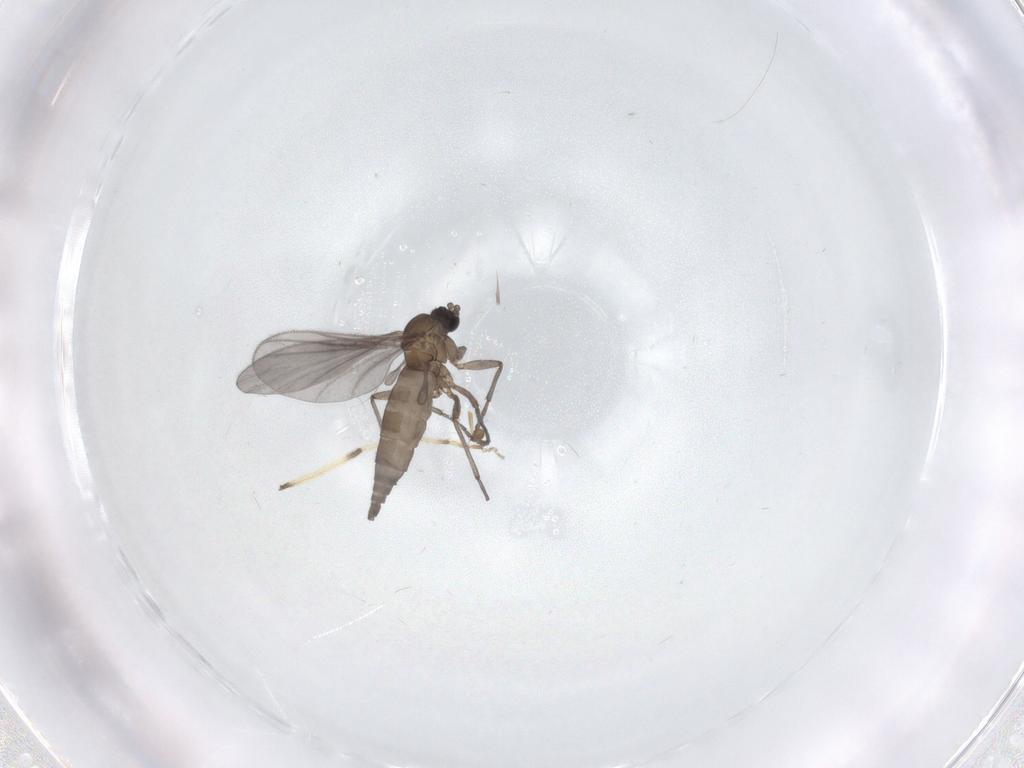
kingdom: Animalia
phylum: Arthropoda
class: Insecta
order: Diptera
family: Sciaridae
